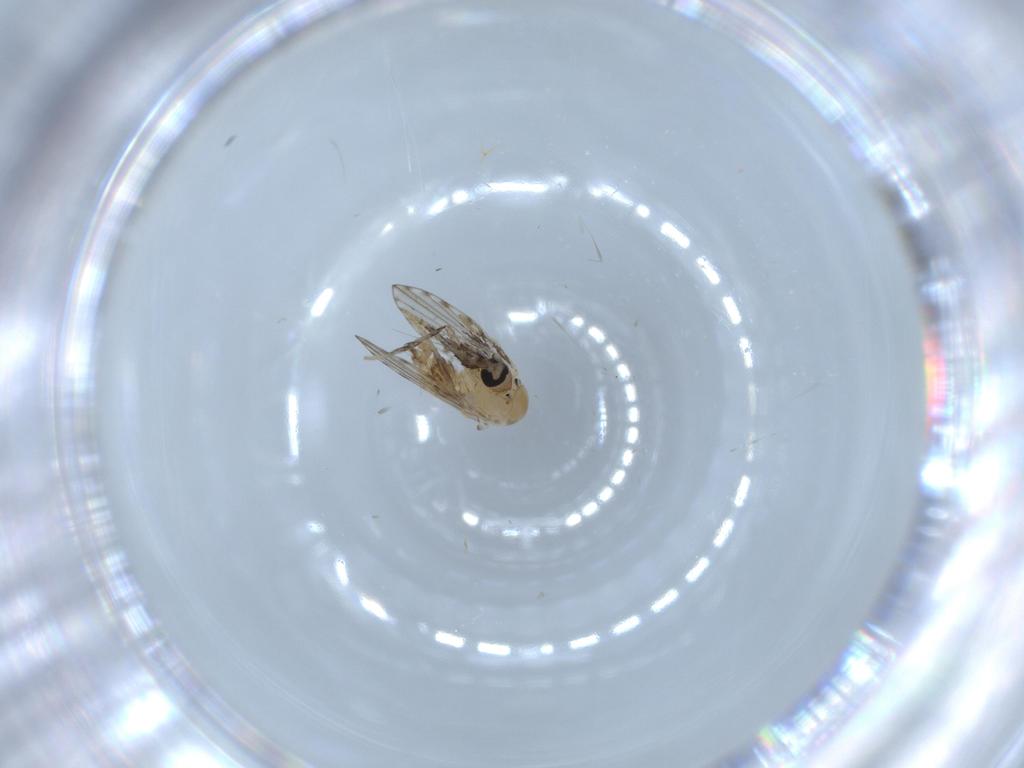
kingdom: Animalia
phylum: Arthropoda
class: Insecta
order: Diptera
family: Psychodidae
